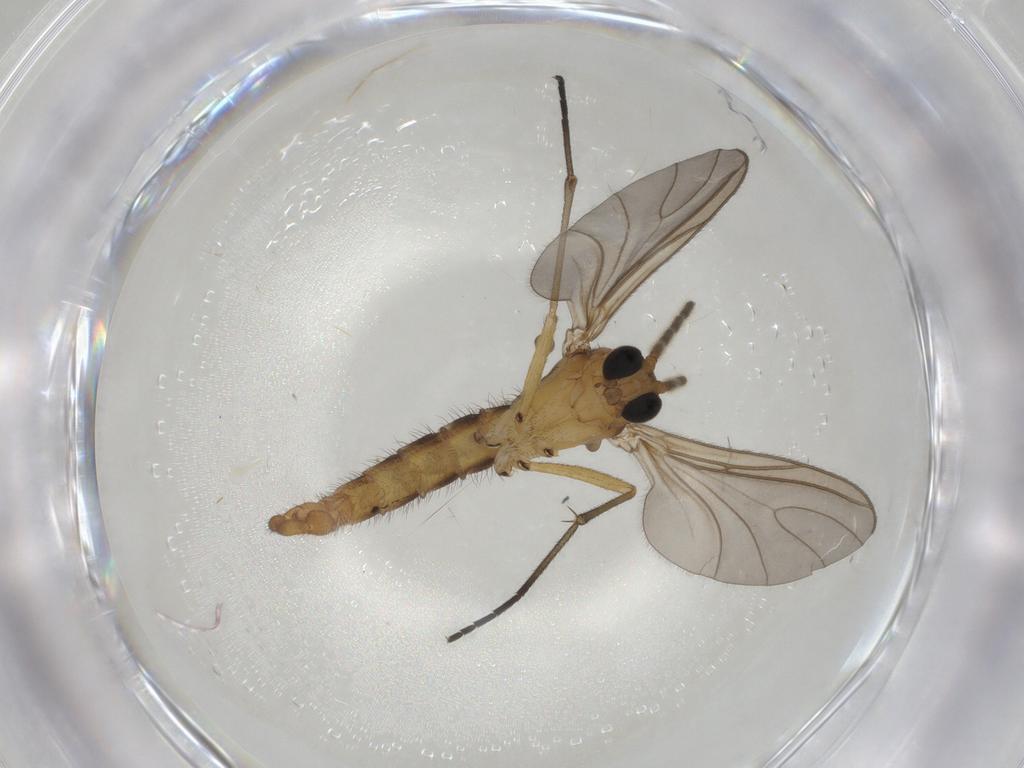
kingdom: Animalia
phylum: Arthropoda
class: Insecta
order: Diptera
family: Sciaridae
